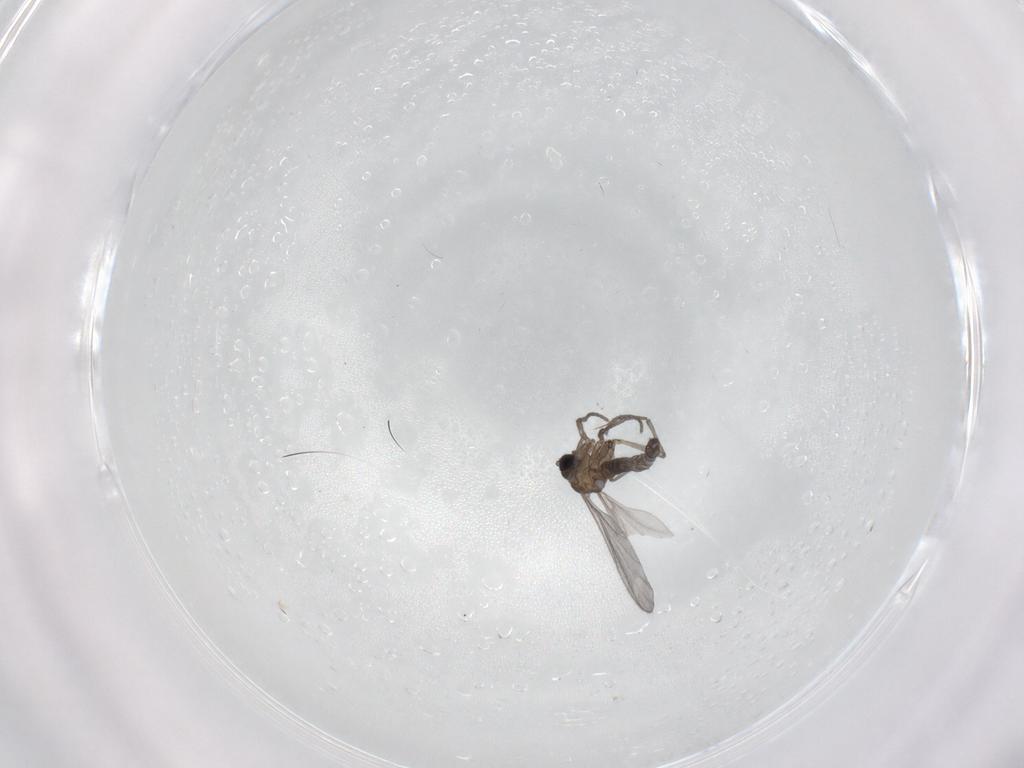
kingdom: Animalia
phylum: Arthropoda
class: Insecta
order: Diptera
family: Sciaridae
